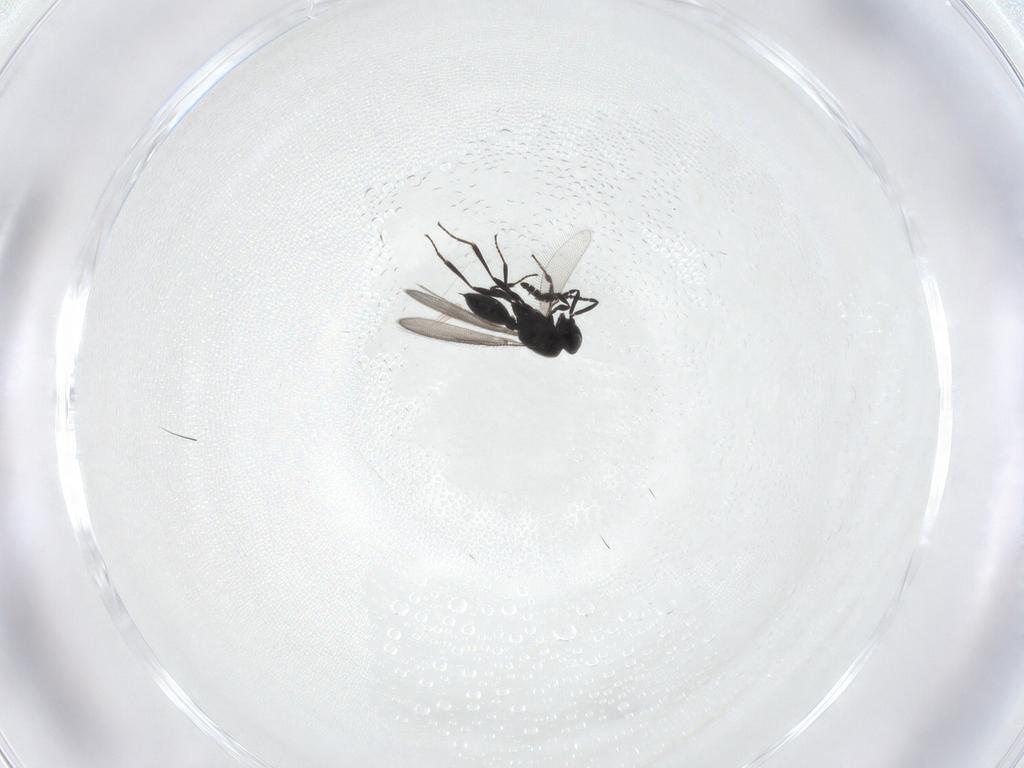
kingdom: Animalia
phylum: Arthropoda
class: Insecta
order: Hymenoptera
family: Scelionidae
